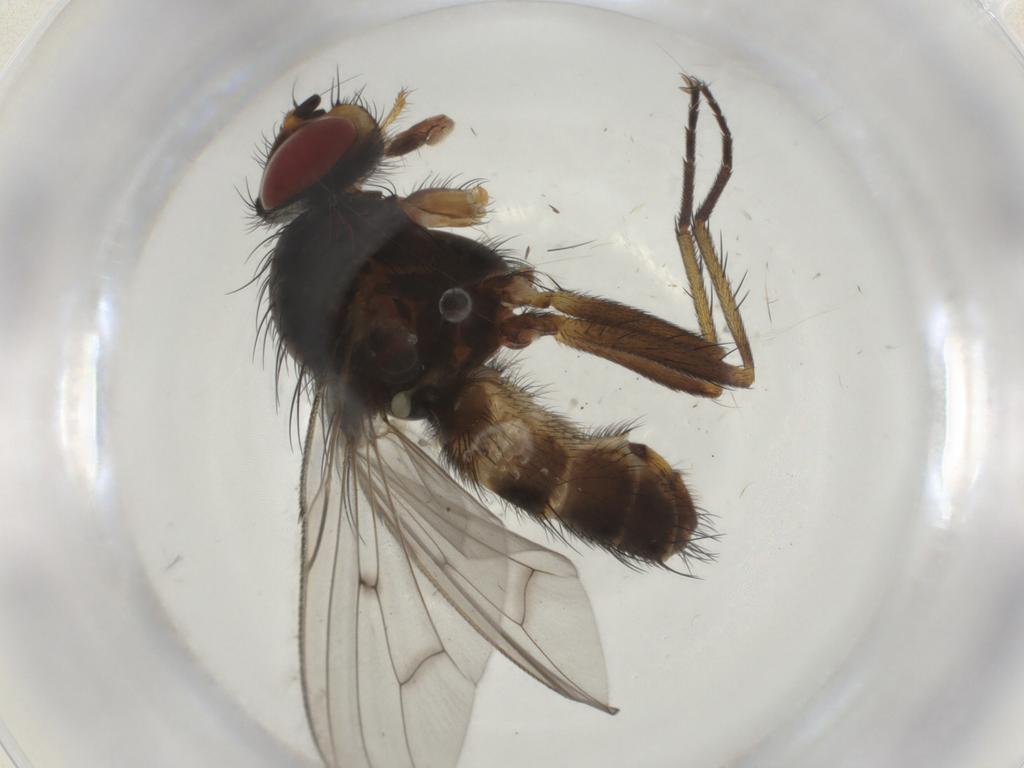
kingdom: Animalia
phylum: Arthropoda
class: Insecta
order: Diptera
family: Anthomyiidae
